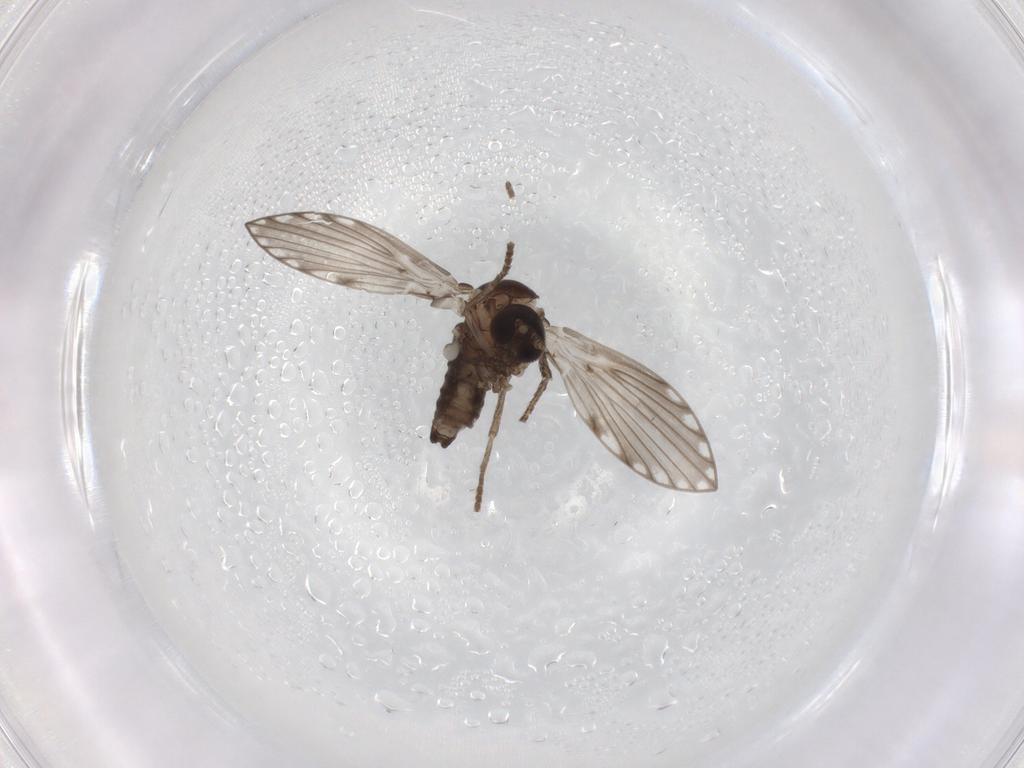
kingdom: Animalia
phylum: Arthropoda
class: Insecta
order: Diptera
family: Psychodidae
